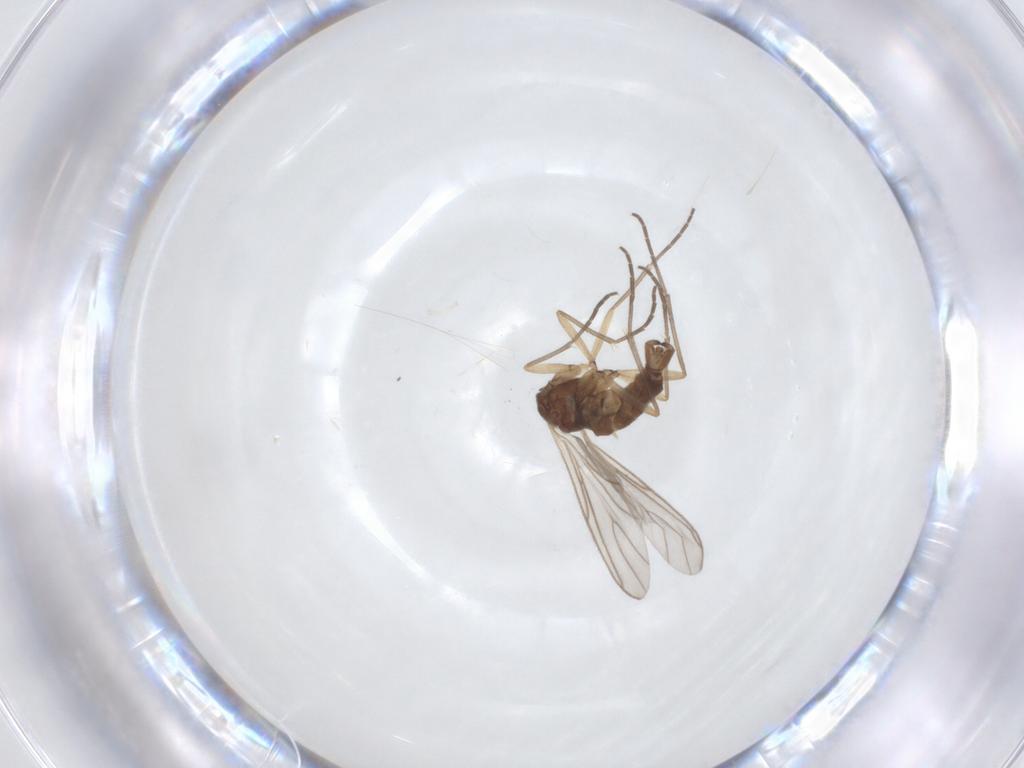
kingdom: Animalia
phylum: Arthropoda
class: Insecta
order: Diptera
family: Sciaridae
